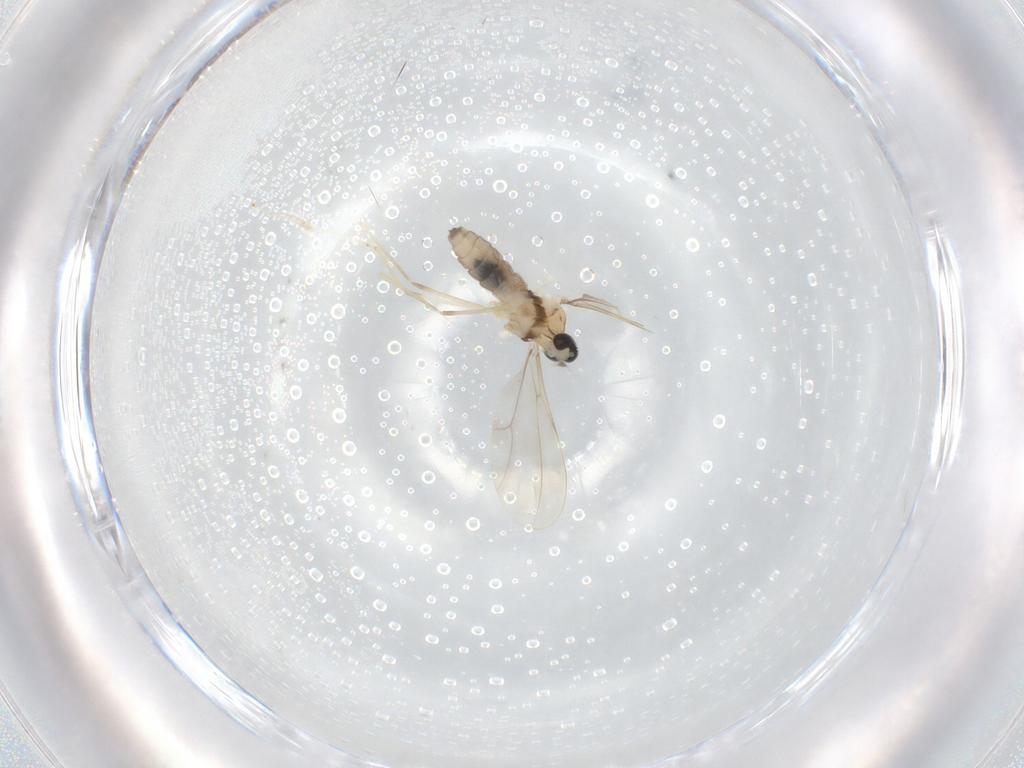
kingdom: Animalia
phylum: Arthropoda
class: Insecta
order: Diptera
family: Cecidomyiidae
